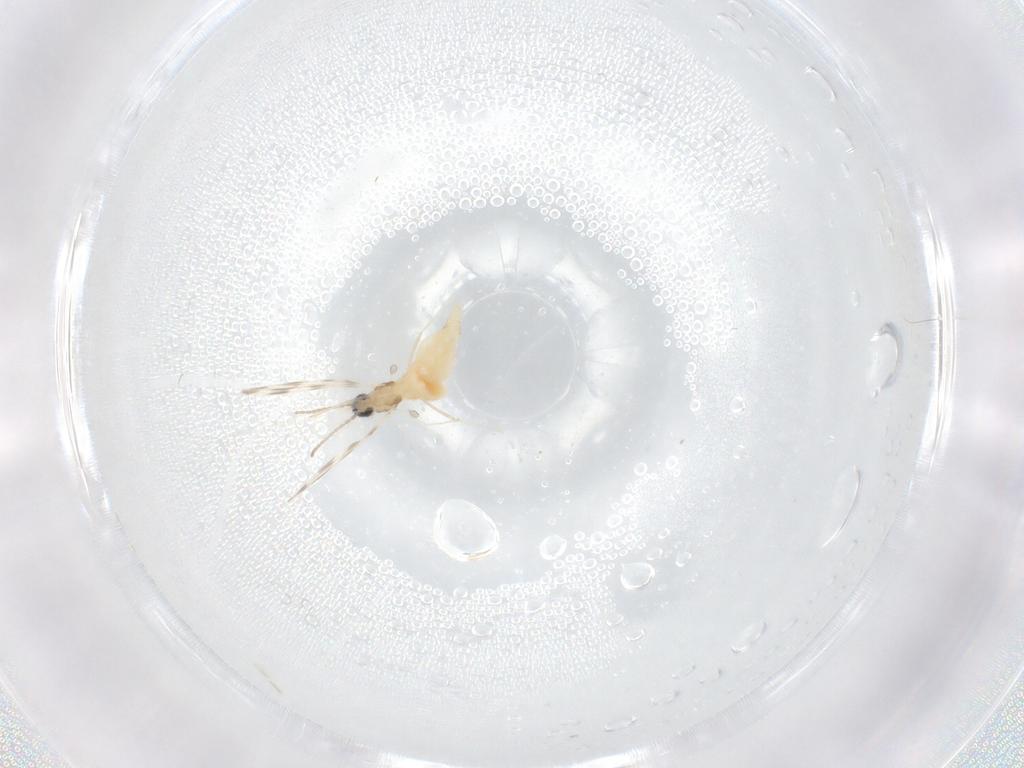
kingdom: Animalia
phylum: Arthropoda
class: Insecta
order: Diptera
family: Cecidomyiidae
